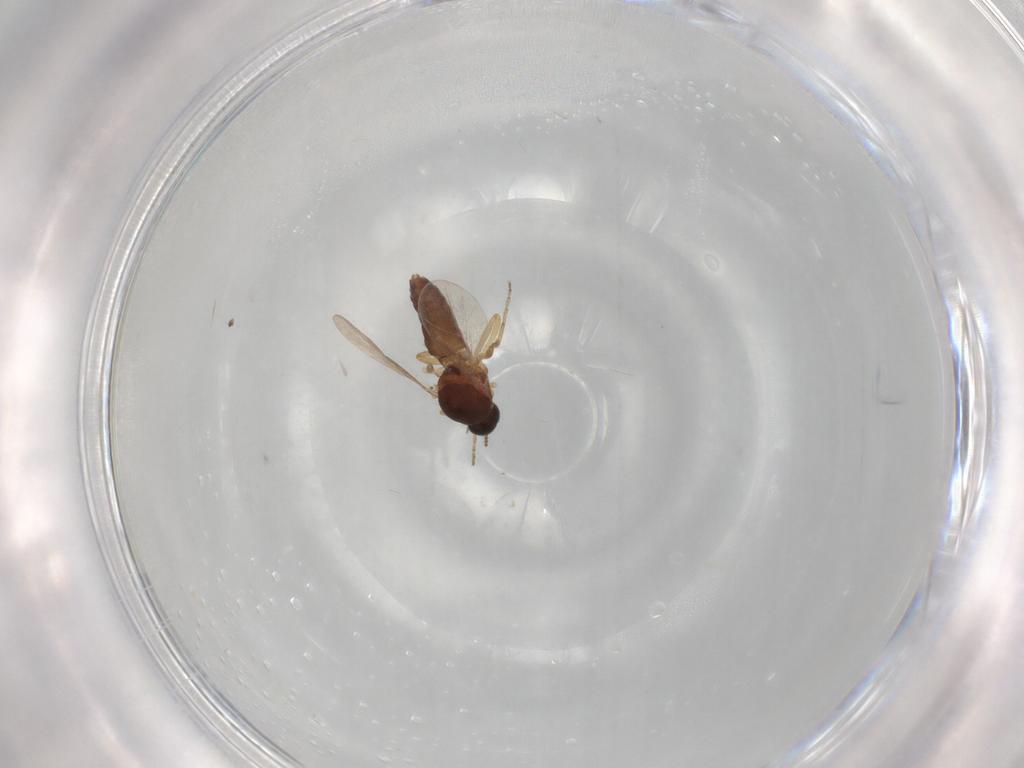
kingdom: Animalia
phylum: Arthropoda
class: Insecta
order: Diptera
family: Ceratopogonidae
